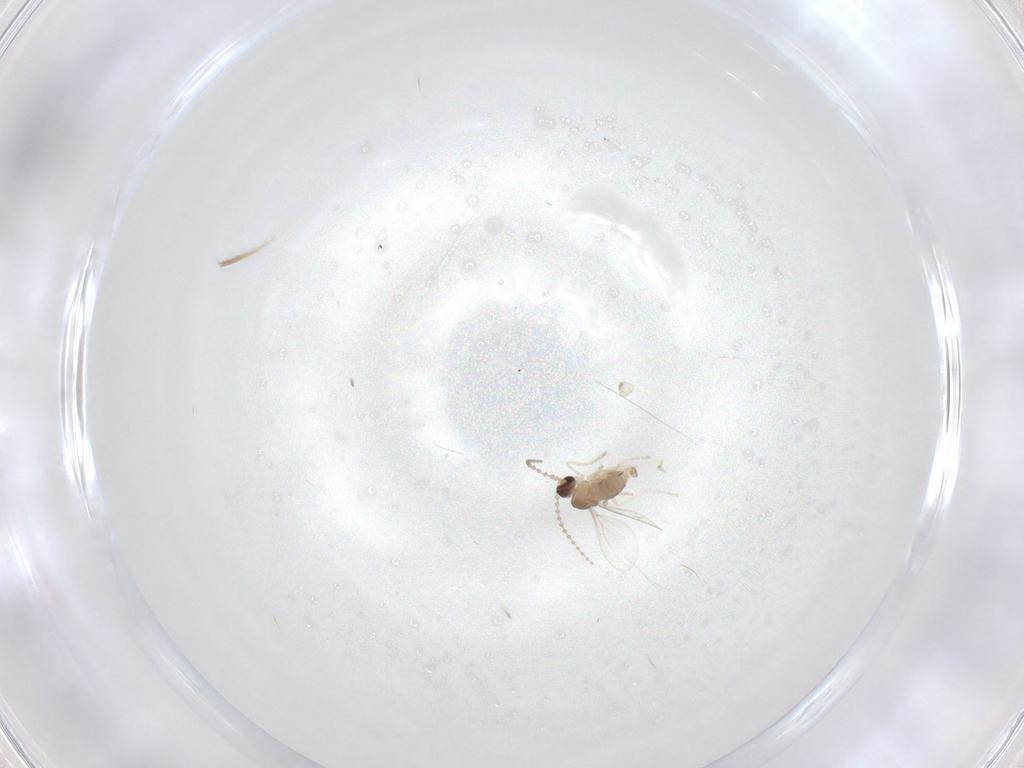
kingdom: Animalia
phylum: Arthropoda
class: Insecta
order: Diptera
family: Cecidomyiidae
